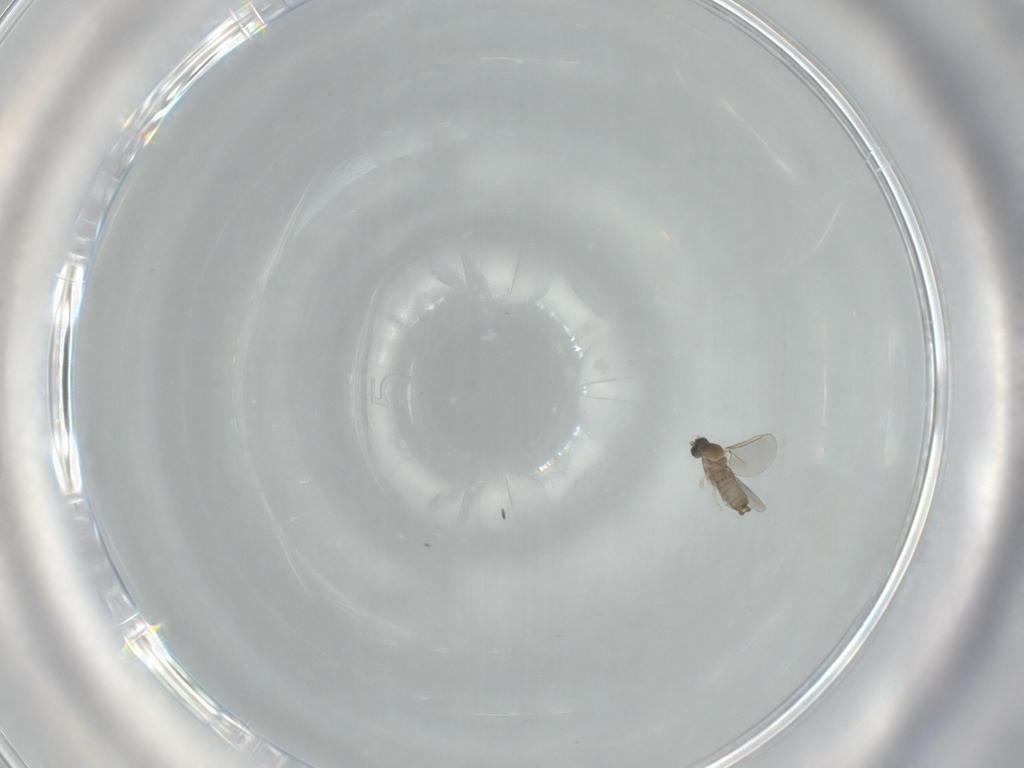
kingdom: Animalia
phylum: Arthropoda
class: Insecta
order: Diptera
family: Cecidomyiidae
